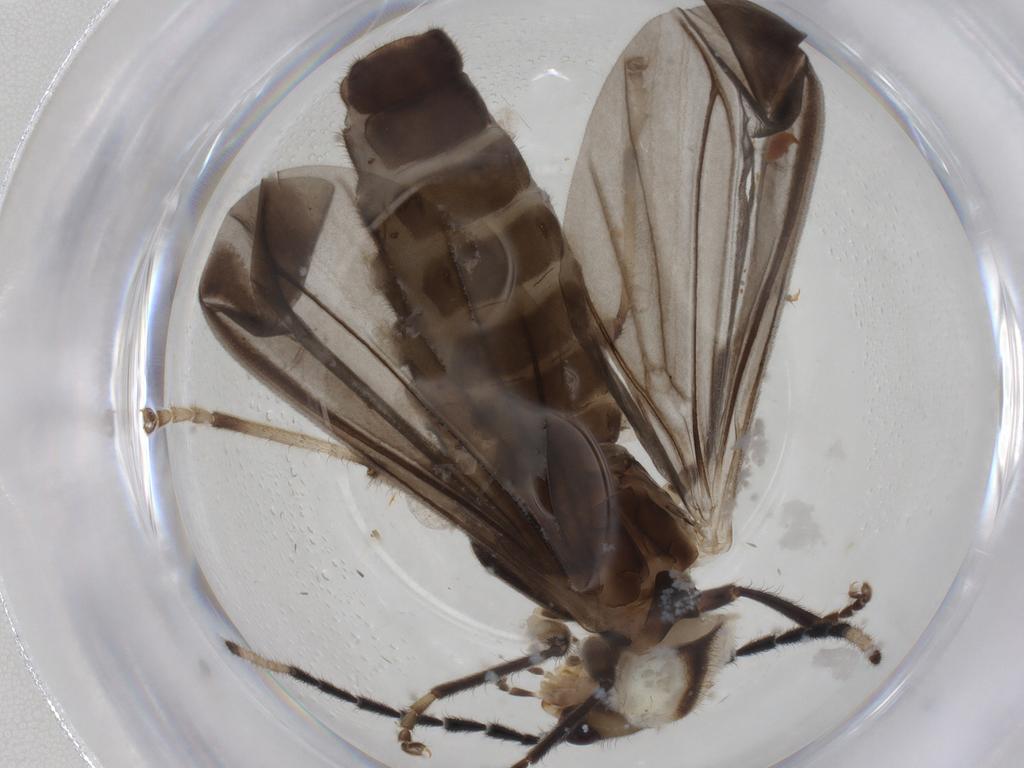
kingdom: Animalia
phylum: Arthropoda
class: Insecta
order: Coleoptera
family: Cantharidae
